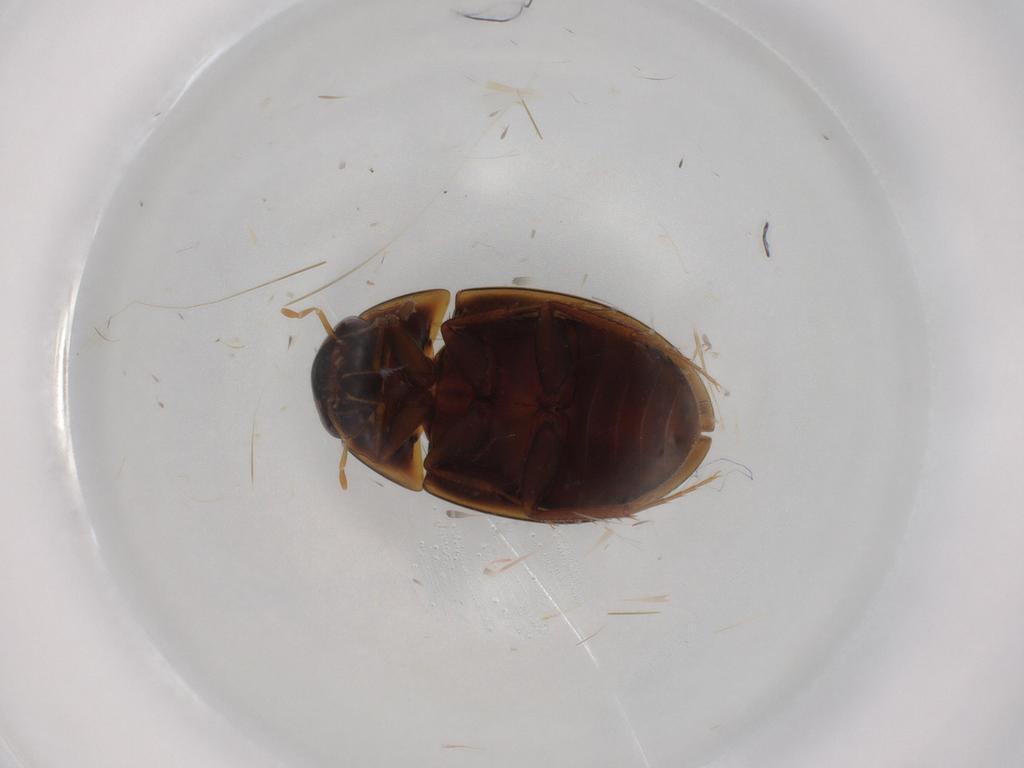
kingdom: Animalia
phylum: Arthropoda
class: Insecta
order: Coleoptera
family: Hydrophilidae
